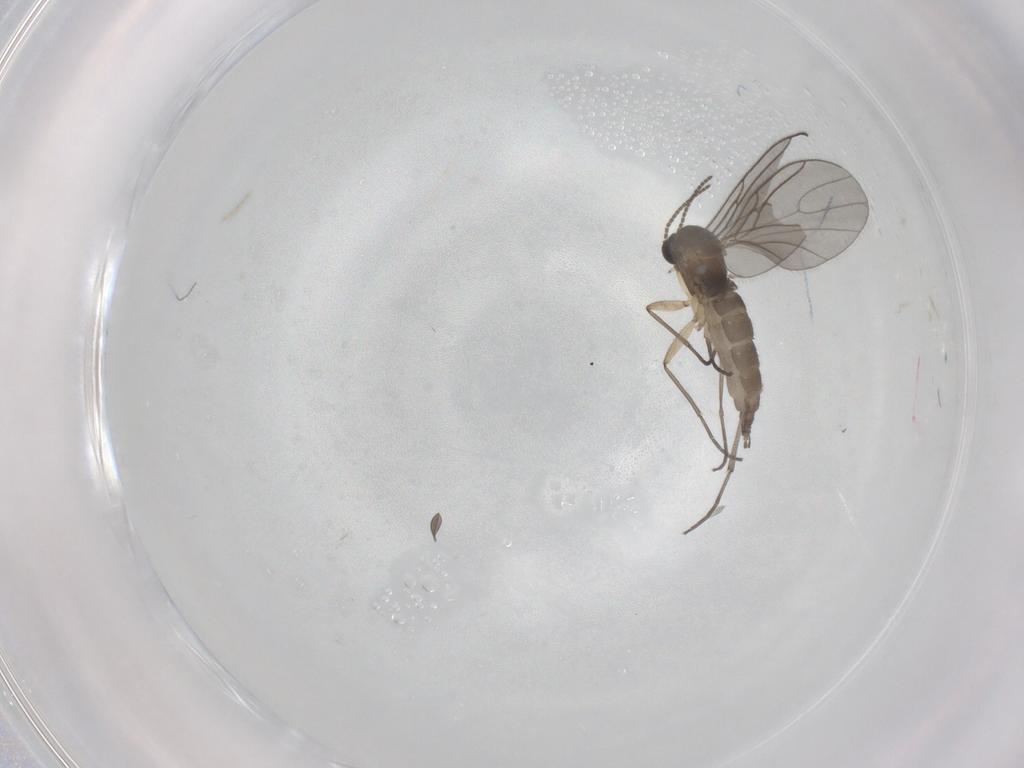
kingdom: Animalia
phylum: Arthropoda
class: Insecta
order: Diptera
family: Sciaridae
